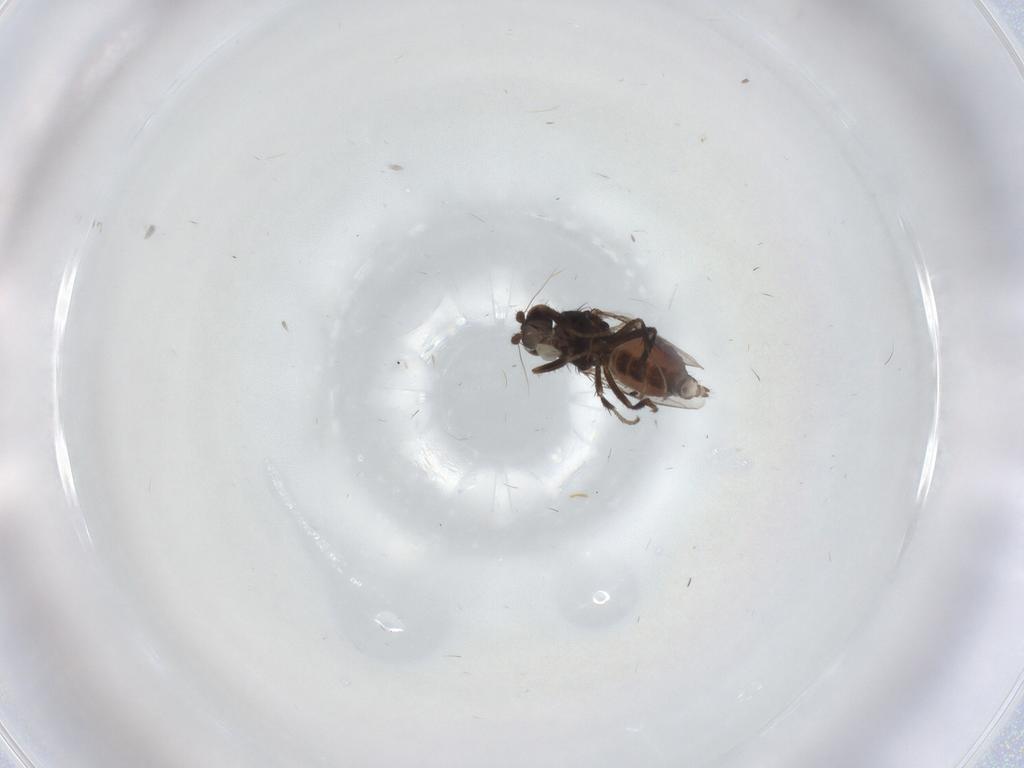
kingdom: Animalia
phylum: Arthropoda
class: Insecta
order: Diptera
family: Sphaeroceridae
